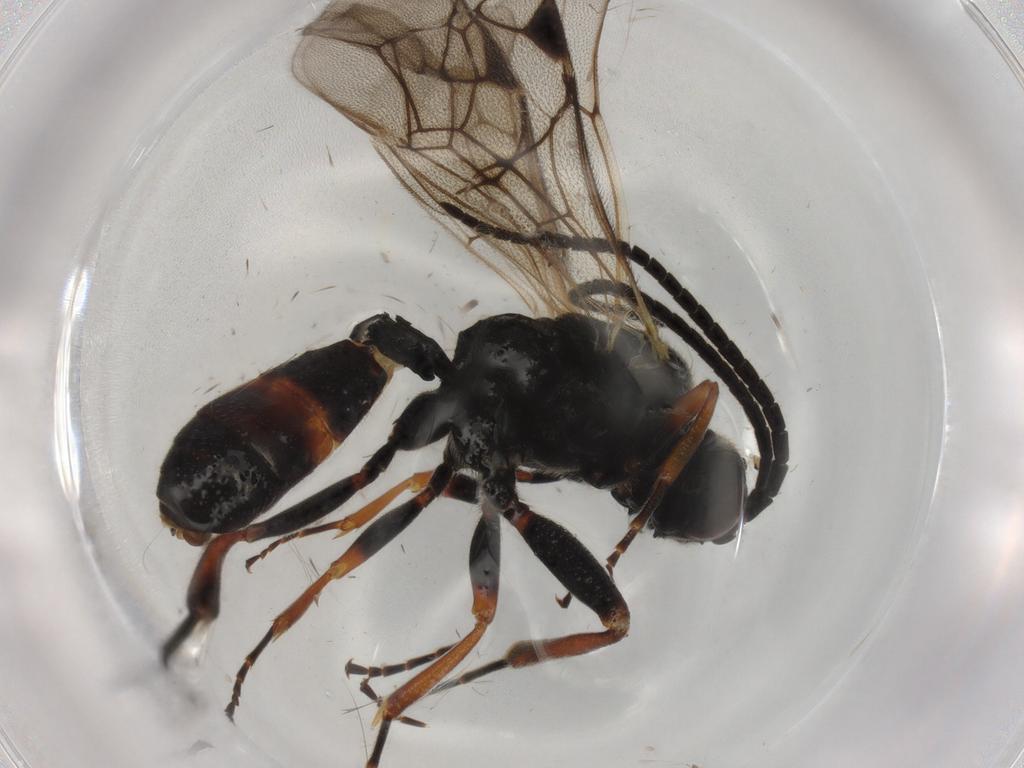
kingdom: Animalia
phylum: Arthropoda
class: Insecta
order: Hymenoptera
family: Ichneumonidae
